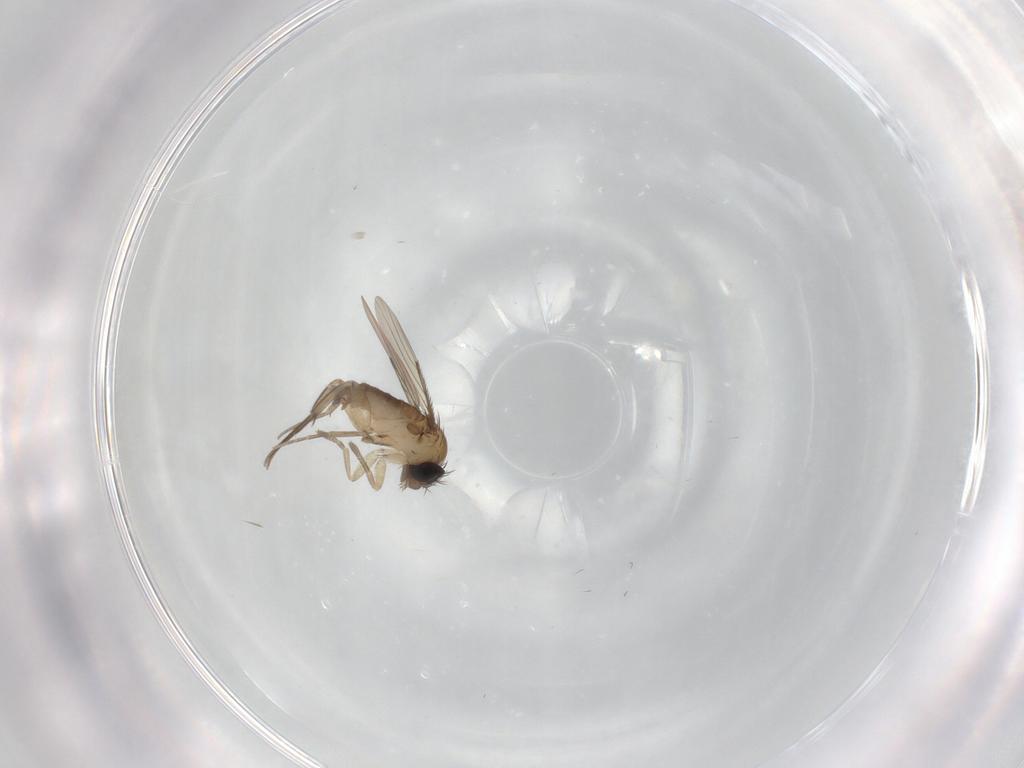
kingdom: Animalia
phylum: Arthropoda
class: Insecta
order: Diptera
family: Phoridae
